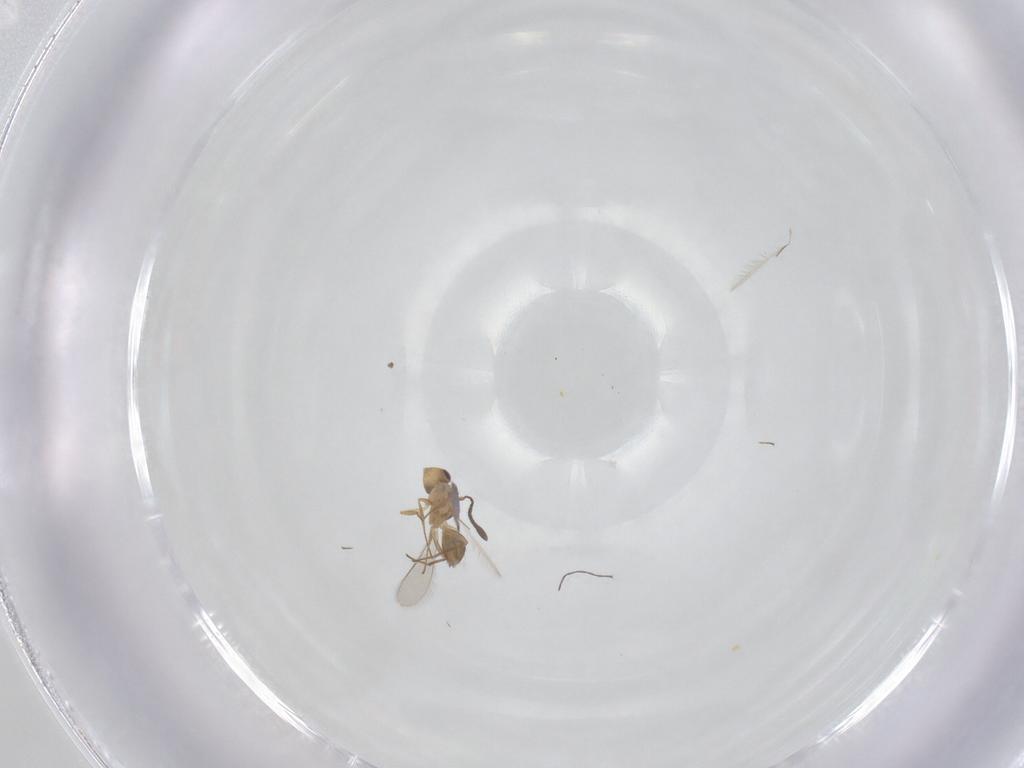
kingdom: Animalia
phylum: Arthropoda
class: Insecta
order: Hymenoptera
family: Mymaridae
